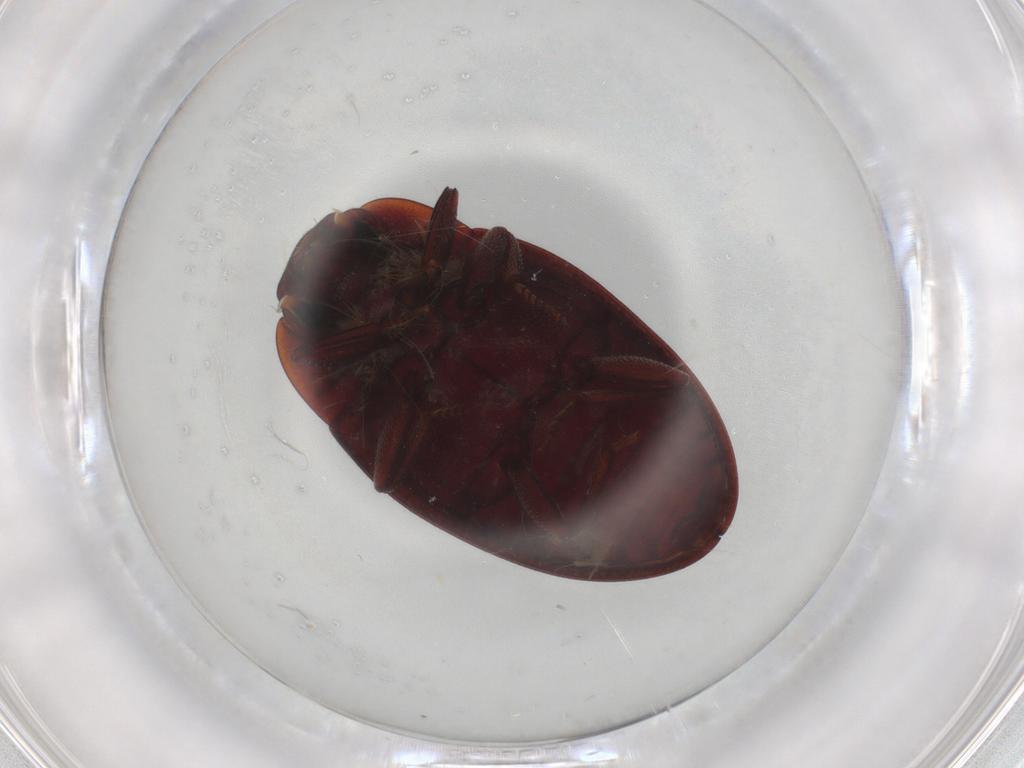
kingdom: Animalia
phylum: Arthropoda
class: Insecta
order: Coleoptera
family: Zopheridae
